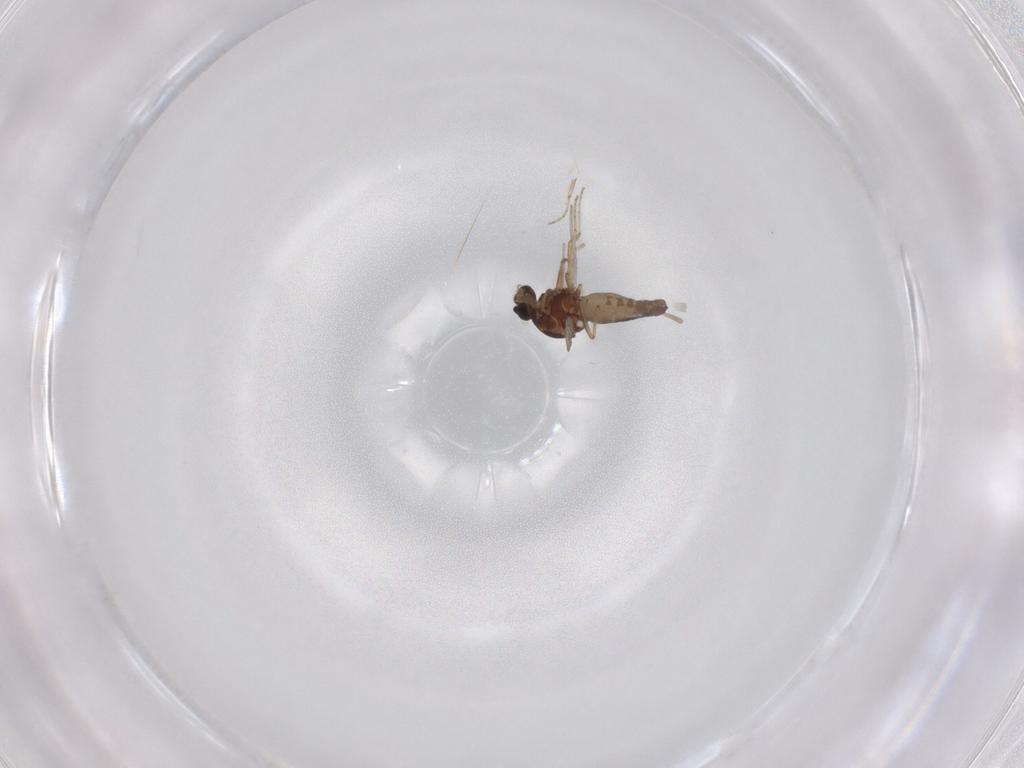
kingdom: Animalia
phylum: Arthropoda
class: Insecta
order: Diptera
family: Ceratopogonidae
